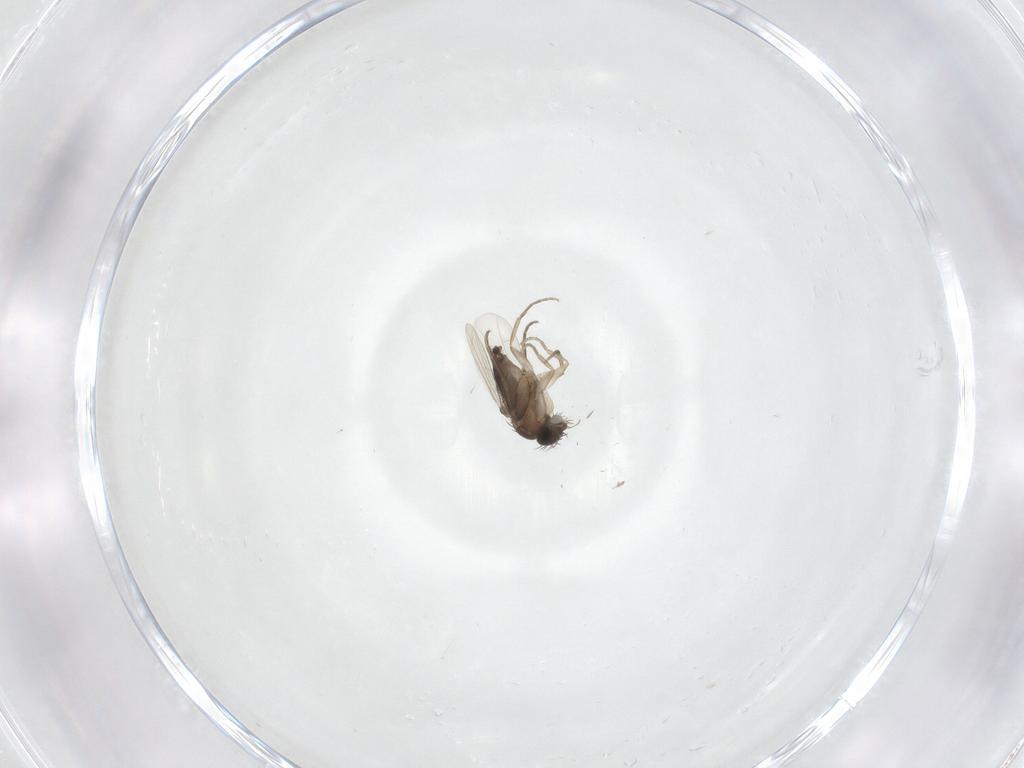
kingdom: Animalia
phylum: Arthropoda
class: Insecta
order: Diptera
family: Phoridae
